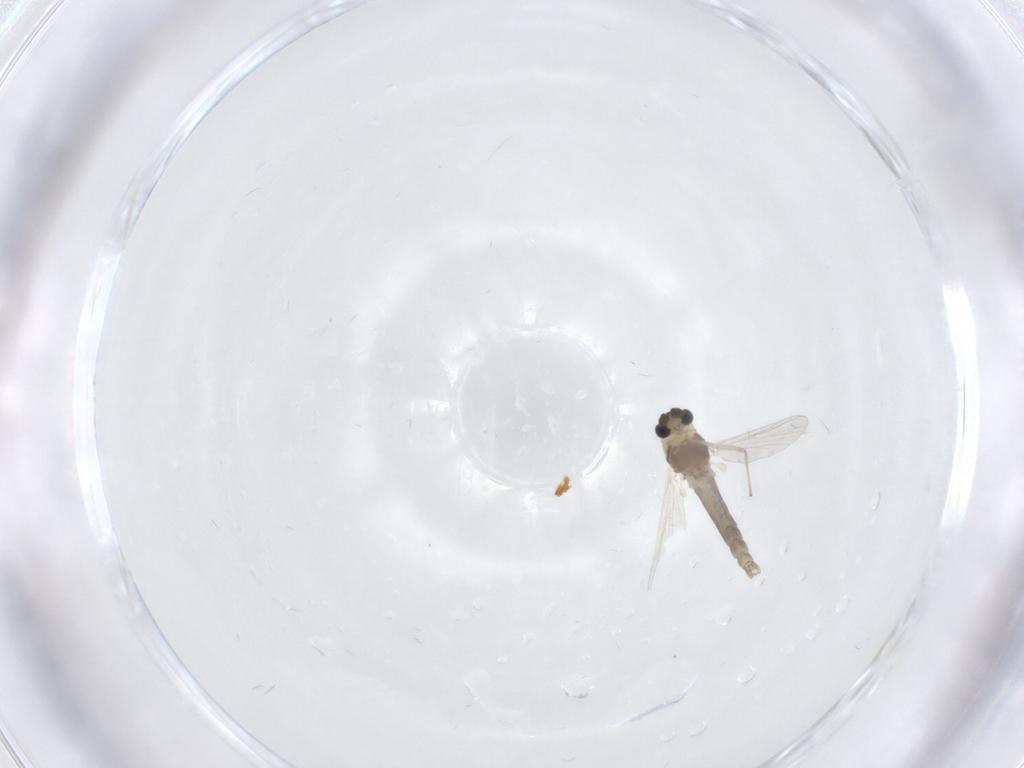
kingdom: Animalia
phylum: Arthropoda
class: Insecta
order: Diptera
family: Chironomidae
